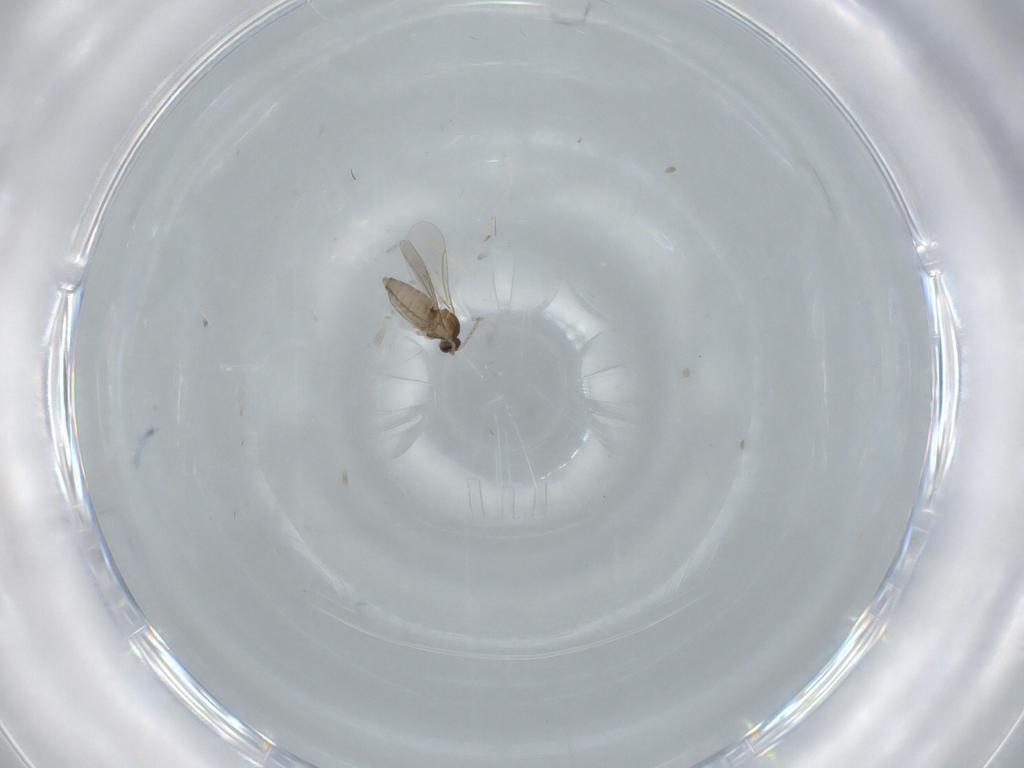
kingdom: Animalia
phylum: Arthropoda
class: Insecta
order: Diptera
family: Cecidomyiidae
